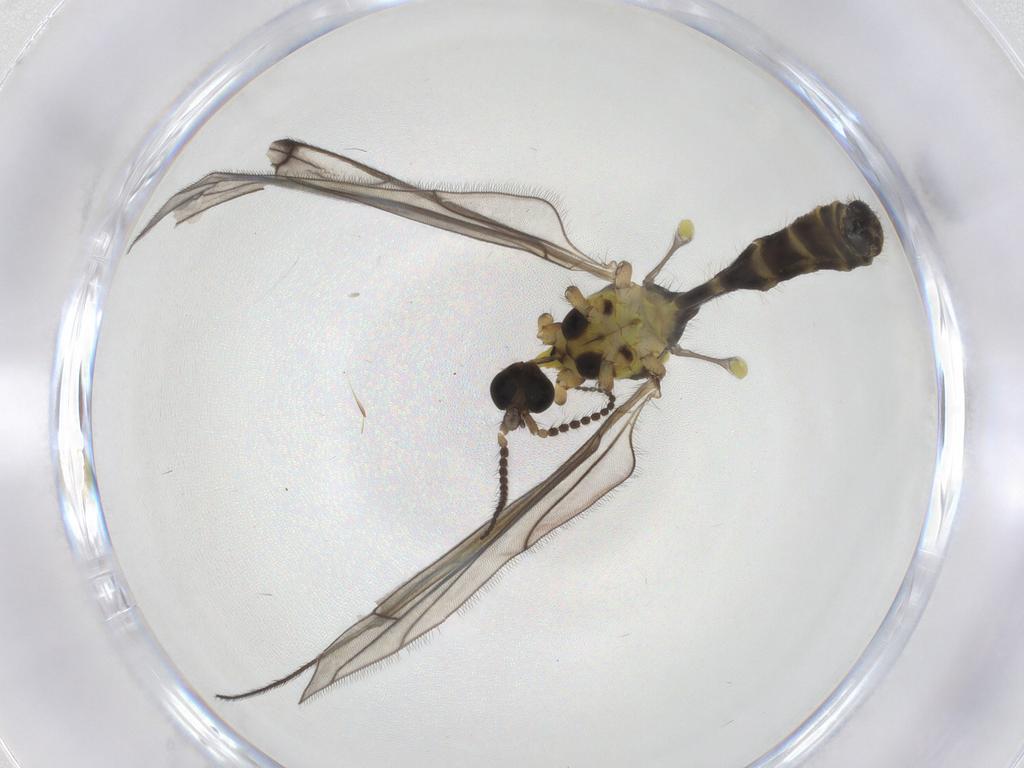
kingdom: Animalia
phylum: Arthropoda
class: Insecta
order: Diptera
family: Limoniidae
